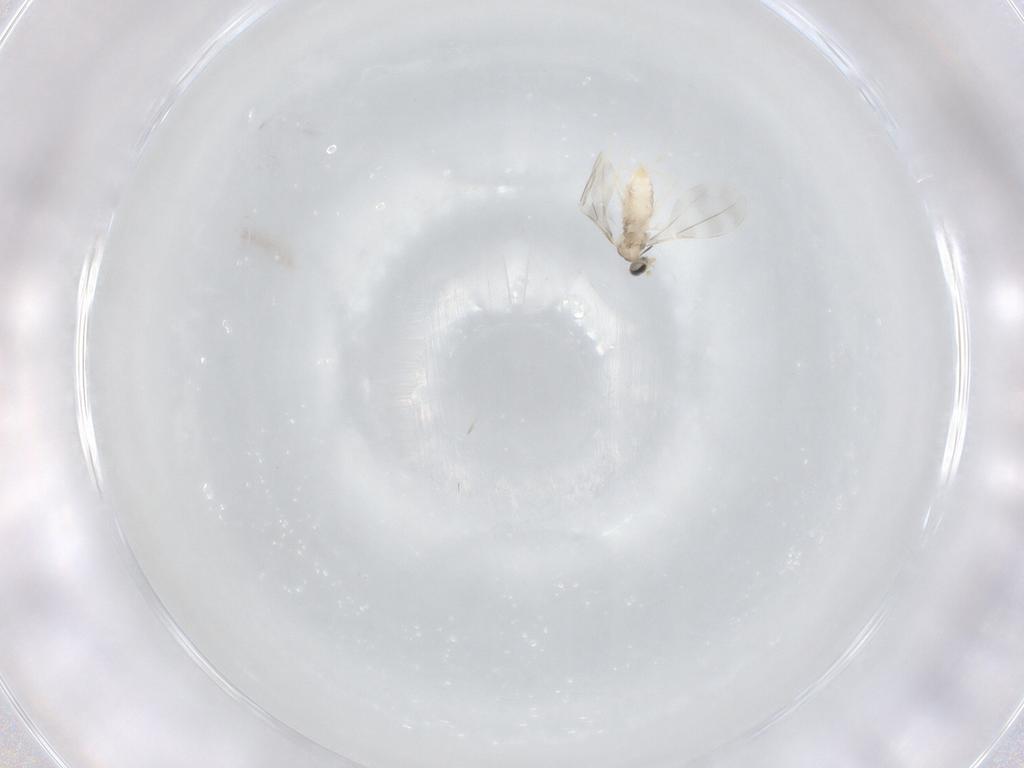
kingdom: Animalia
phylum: Arthropoda
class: Insecta
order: Diptera
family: Cecidomyiidae
